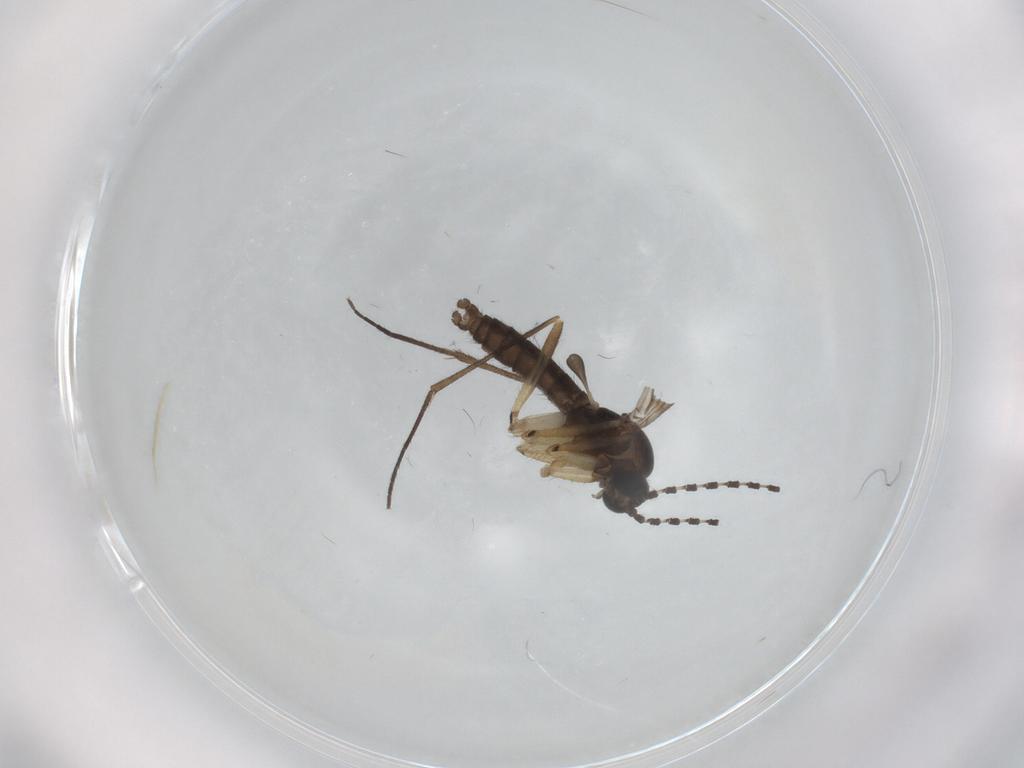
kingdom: Animalia
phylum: Arthropoda
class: Insecta
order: Diptera
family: Sciaridae
